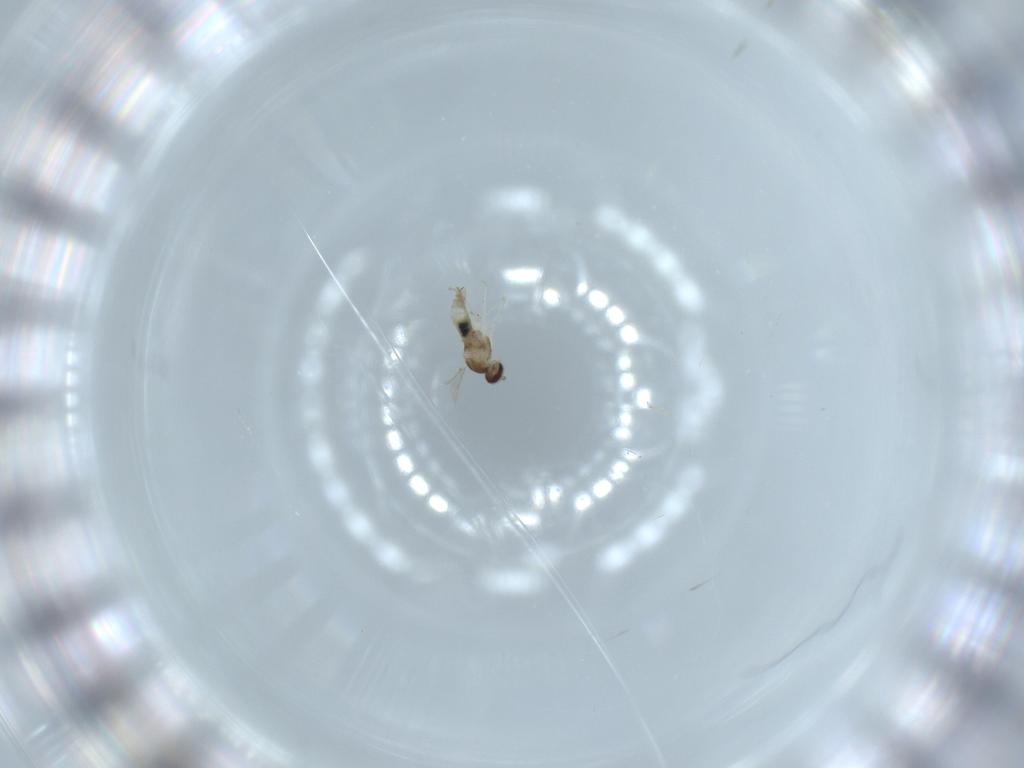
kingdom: Animalia
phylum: Arthropoda
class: Insecta
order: Diptera
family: Cecidomyiidae
